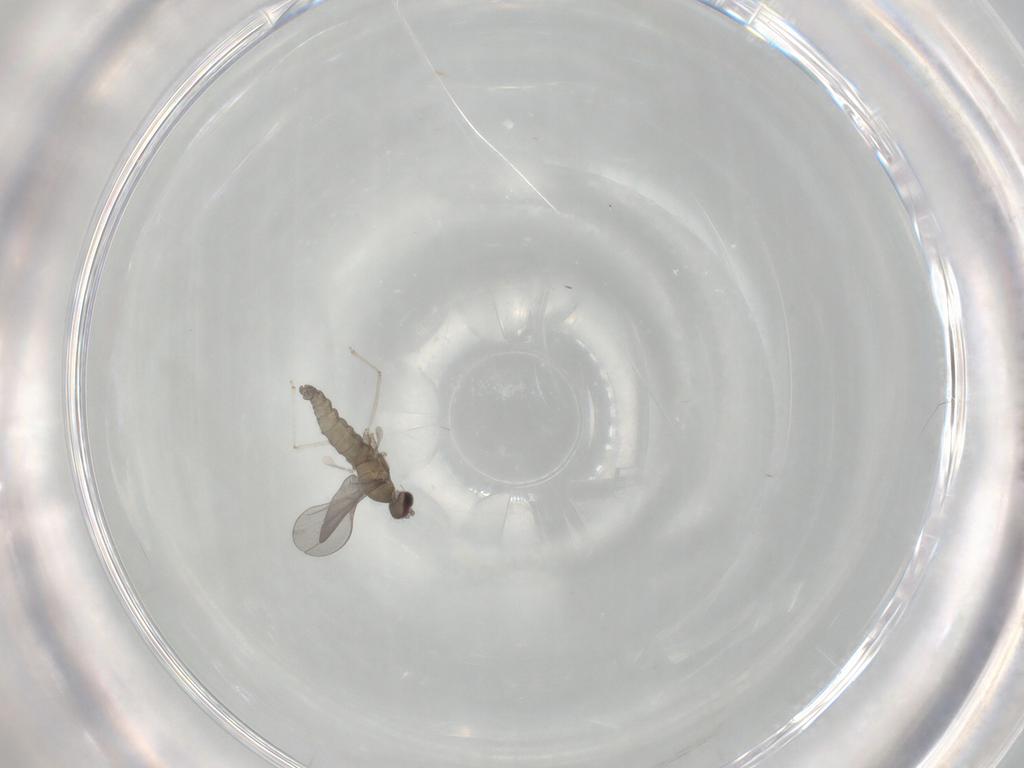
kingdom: Animalia
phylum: Arthropoda
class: Insecta
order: Diptera
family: Cecidomyiidae
